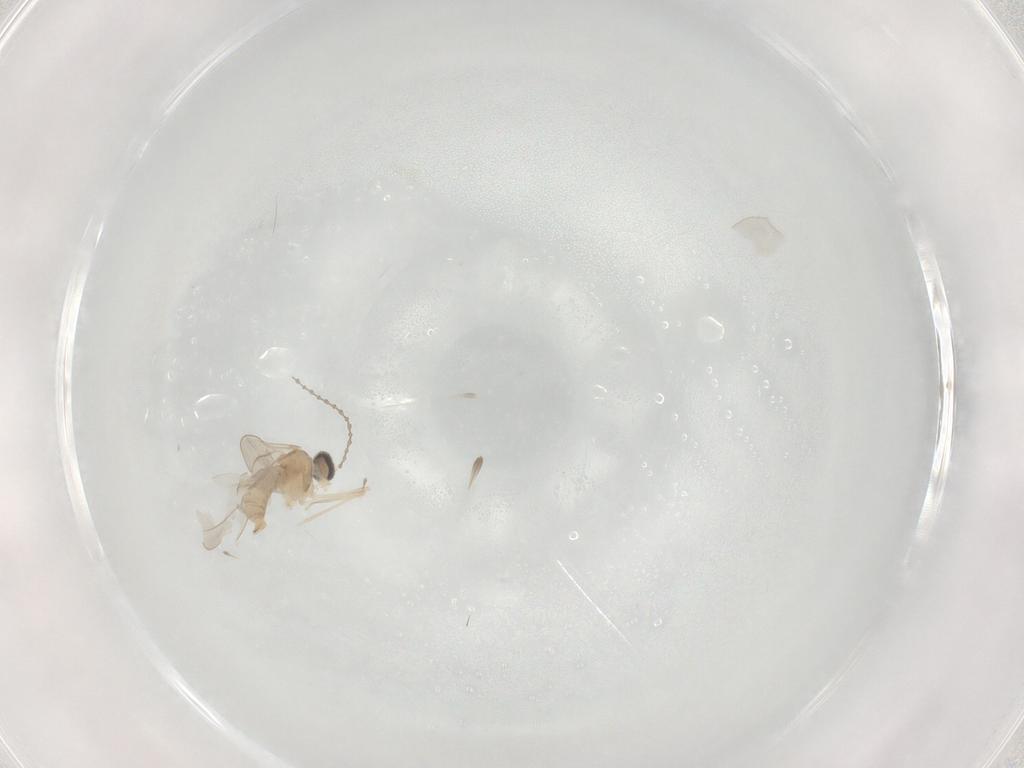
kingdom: Animalia
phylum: Arthropoda
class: Insecta
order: Diptera
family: Cecidomyiidae
